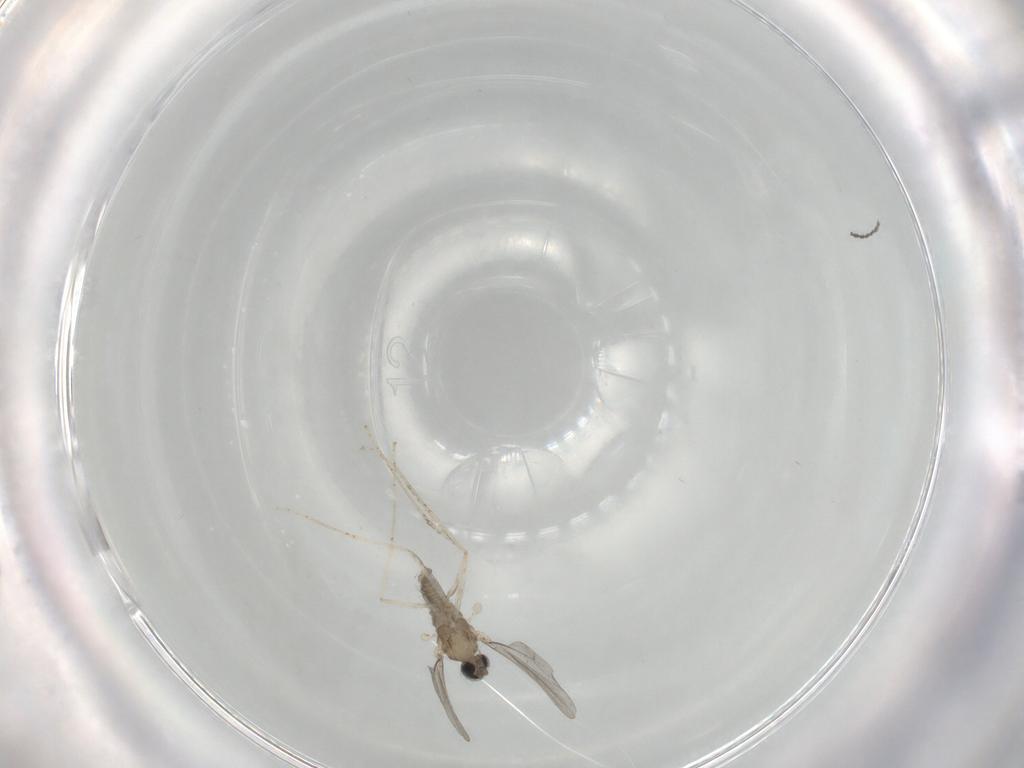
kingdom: Animalia
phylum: Arthropoda
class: Insecta
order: Diptera
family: Cecidomyiidae
